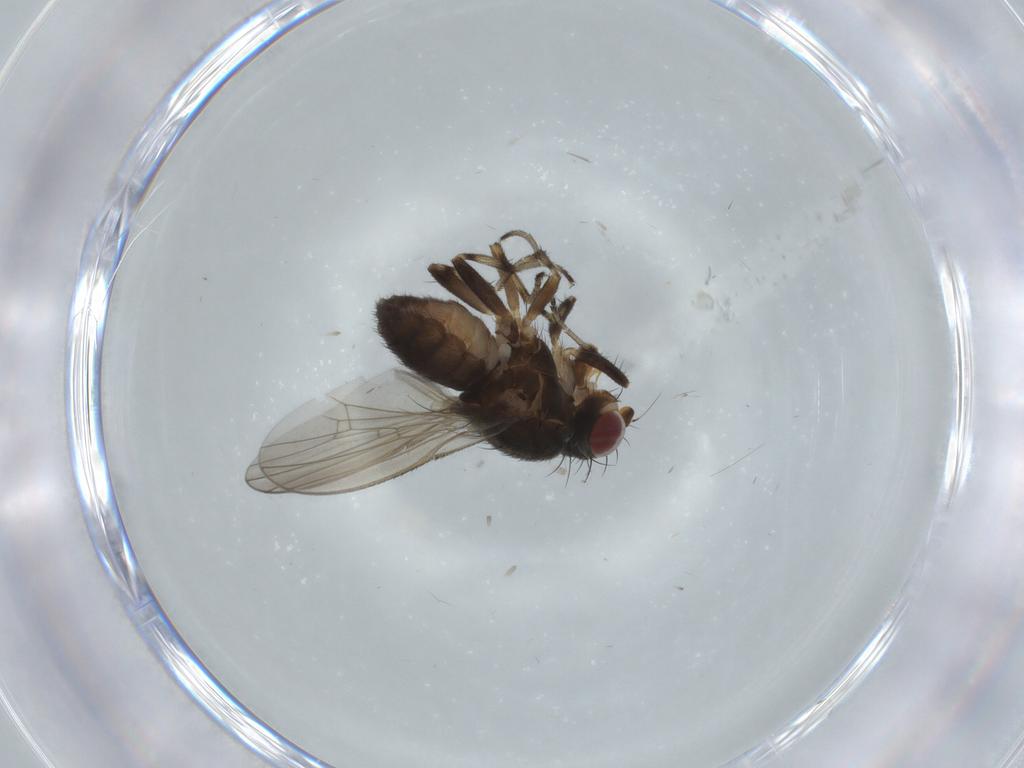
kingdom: Animalia
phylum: Arthropoda
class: Insecta
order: Diptera
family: Heleomyzidae
